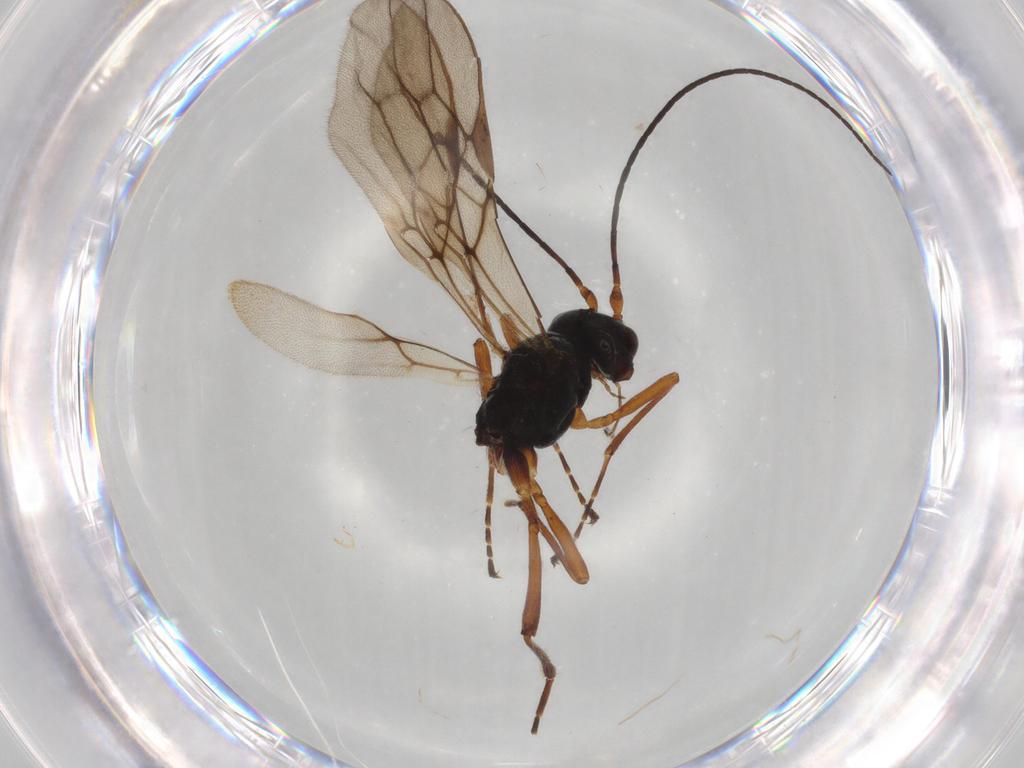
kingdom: Animalia
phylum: Arthropoda
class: Insecta
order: Hymenoptera
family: Braconidae
